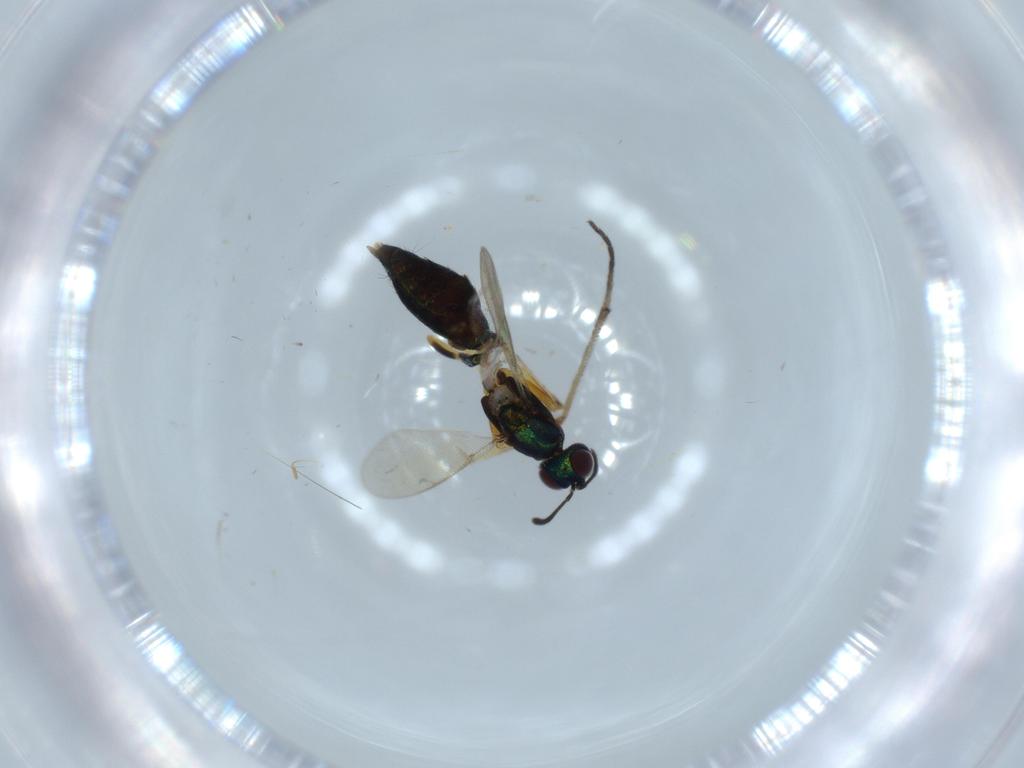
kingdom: Animalia
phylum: Arthropoda
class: Insecta
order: Hymenoptera
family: Eupelmidae
